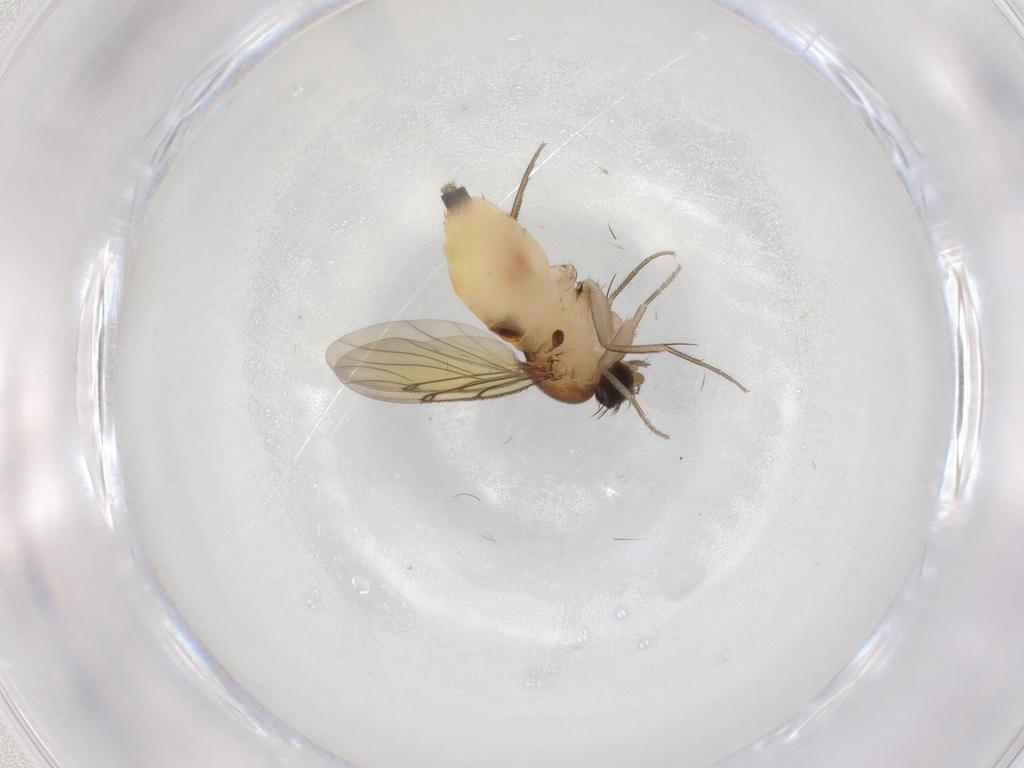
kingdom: Animalia
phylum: Arthropoda
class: Insecta
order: Diptera
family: Ceratopogonidae
